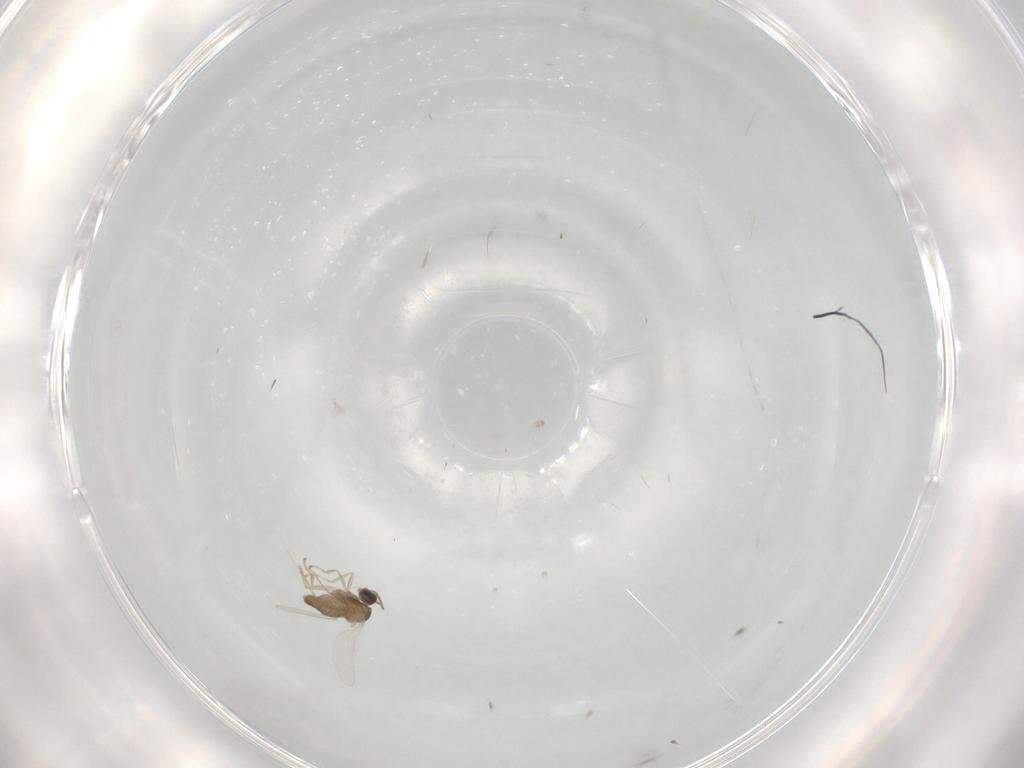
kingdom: Animalia
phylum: Arthropoda
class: Insecta
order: Diptera
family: Cecidomyiidae
